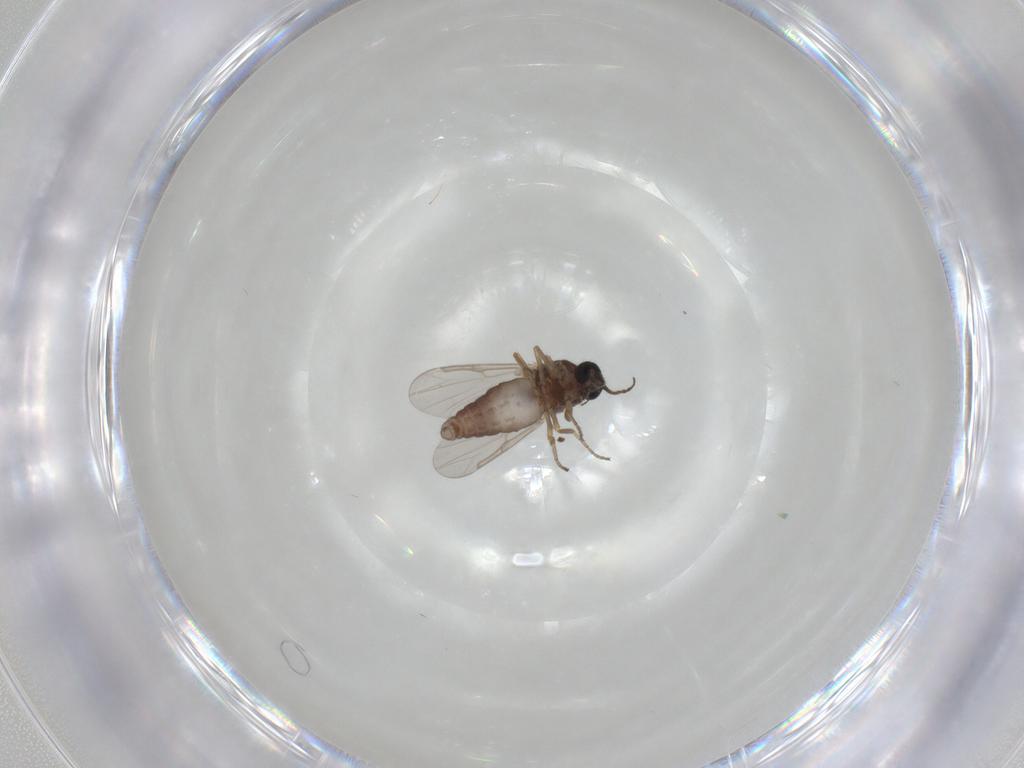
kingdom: Animalia
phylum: Arthropoda
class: Insecta
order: Diptera
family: Ceratopogonidae
